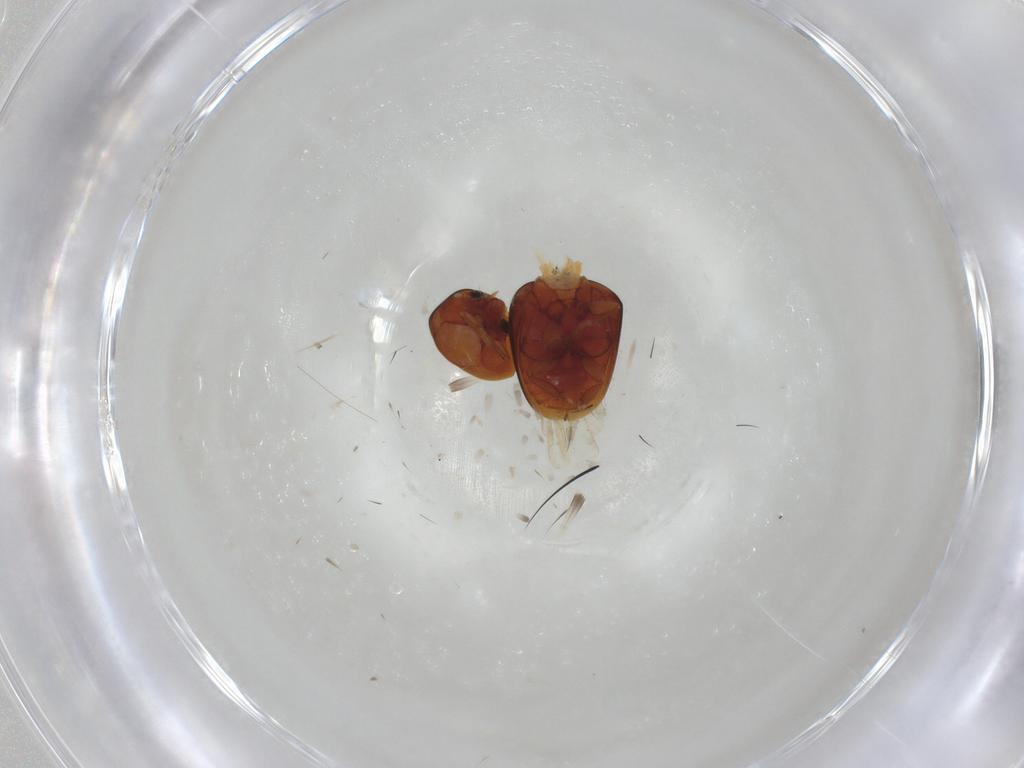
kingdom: Animalia
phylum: Arthropoda
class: Insecta
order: Coleoptera
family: Phalacridae
